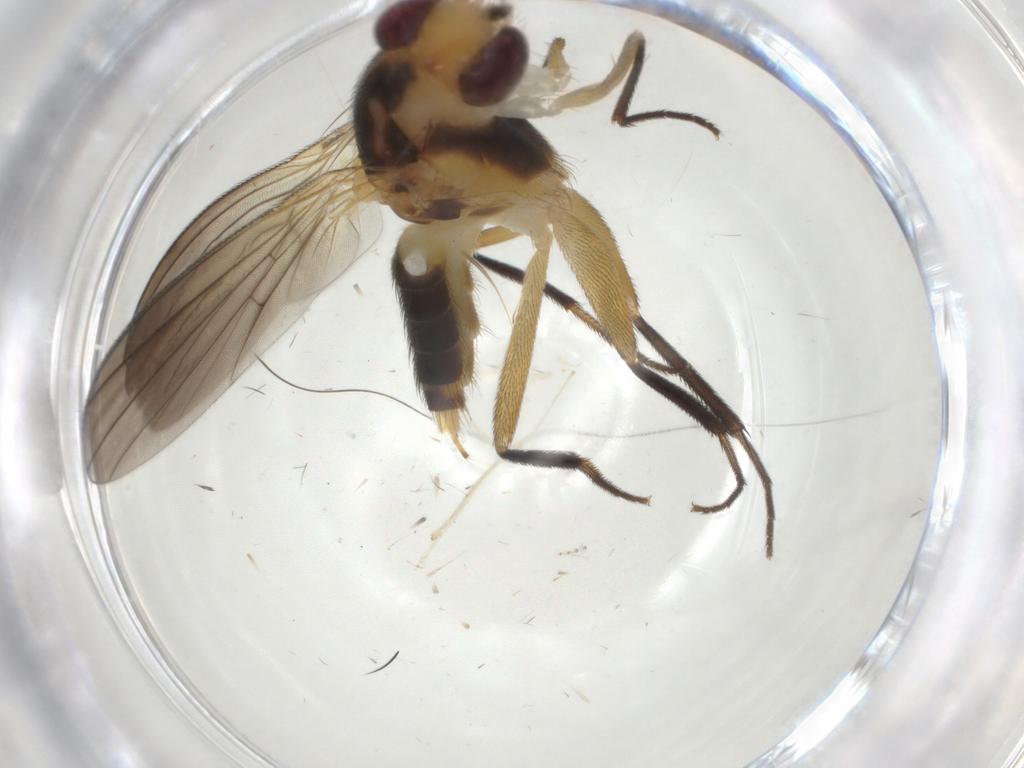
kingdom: Animalia
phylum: Arthropoda
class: Insecta
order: Diptera
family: Cecidomyiidae
